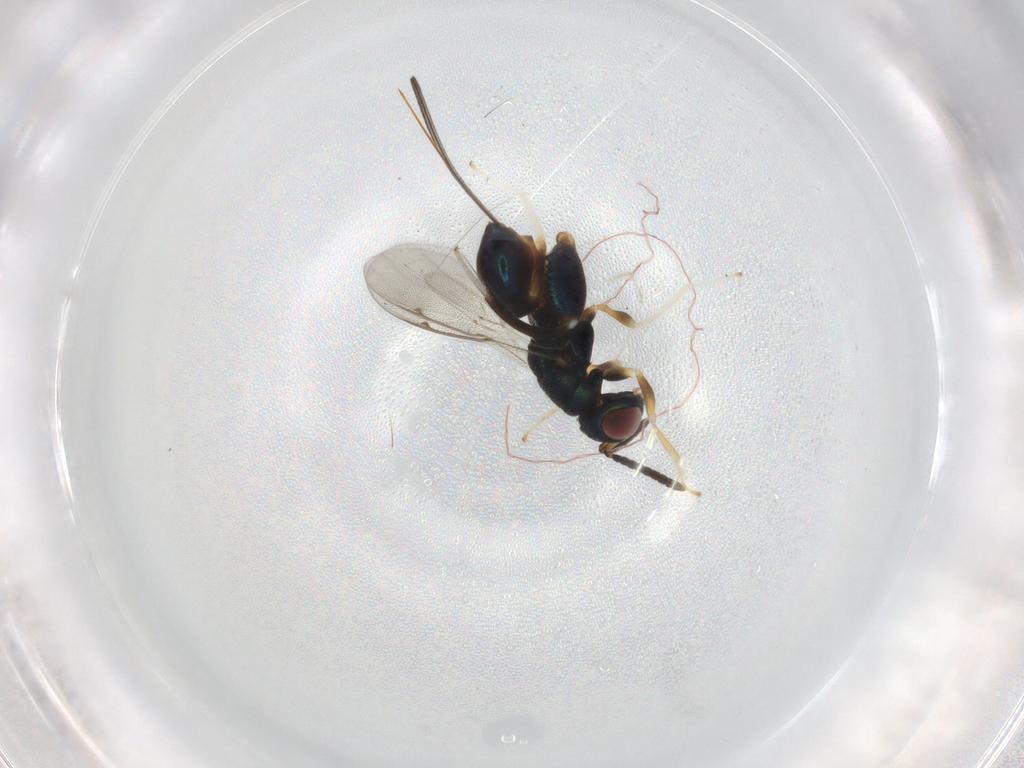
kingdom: Animalia
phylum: Arthropoda
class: Insecta
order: Hymenoptera
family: Torymidae
